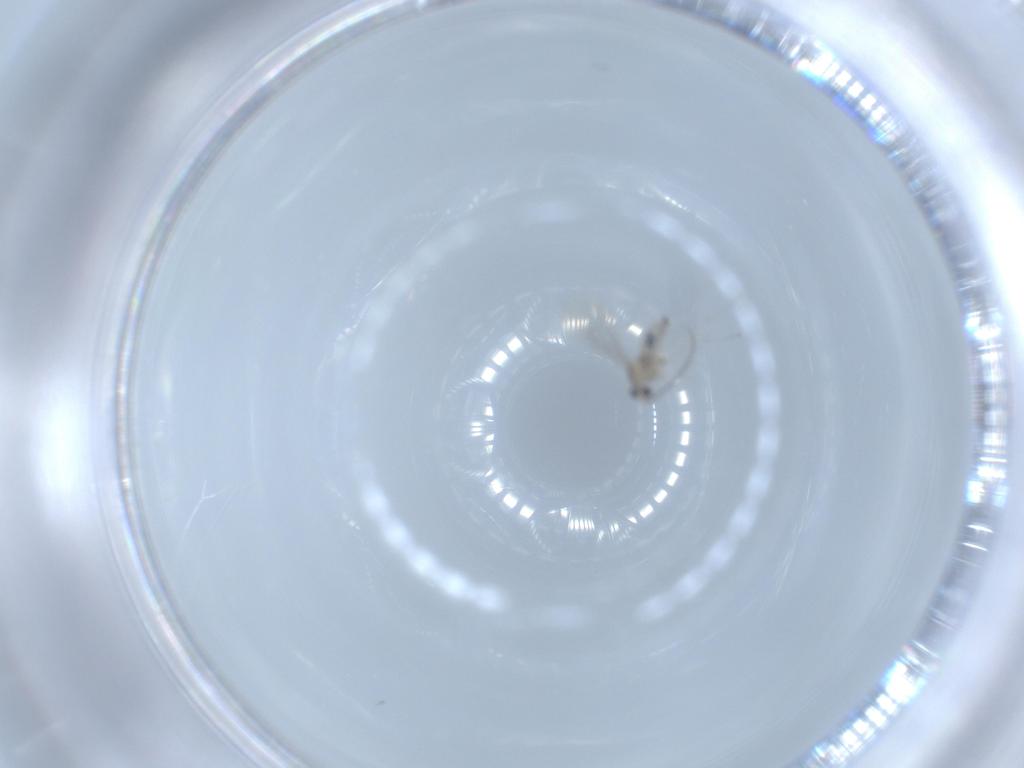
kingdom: Animalia
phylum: Arthropoda
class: Insecta
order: Diptera
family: Cecidomyiidae
